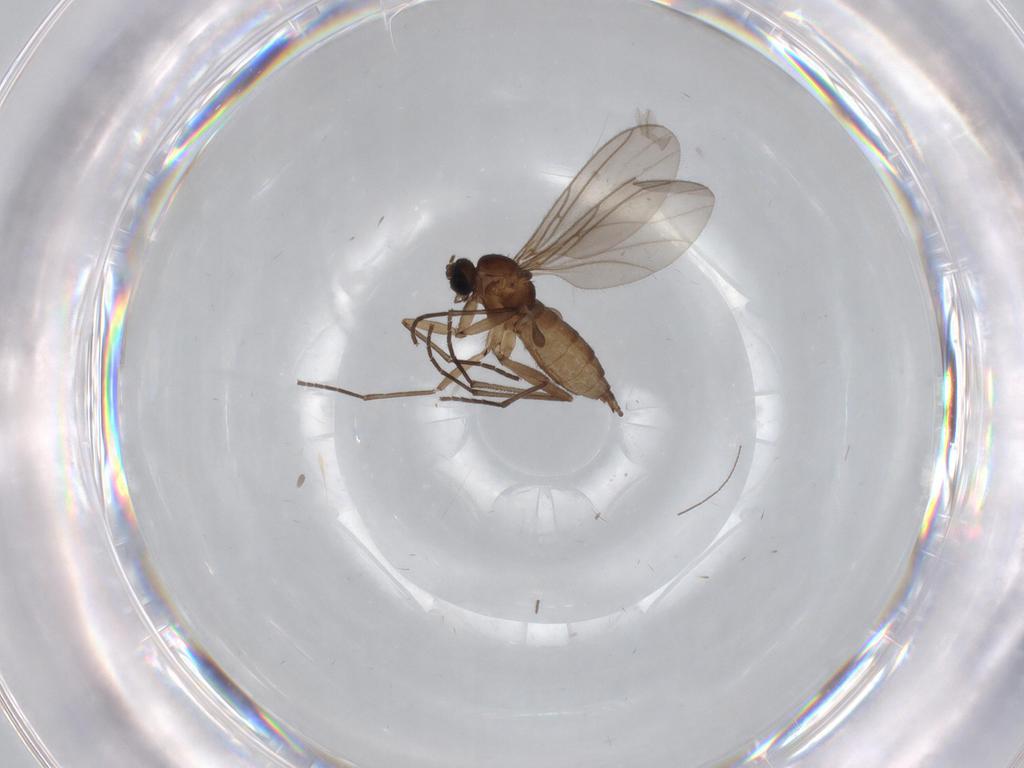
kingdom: Animalia
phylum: Arthropoda
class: Insecta
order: Diptera
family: Sciaridae
